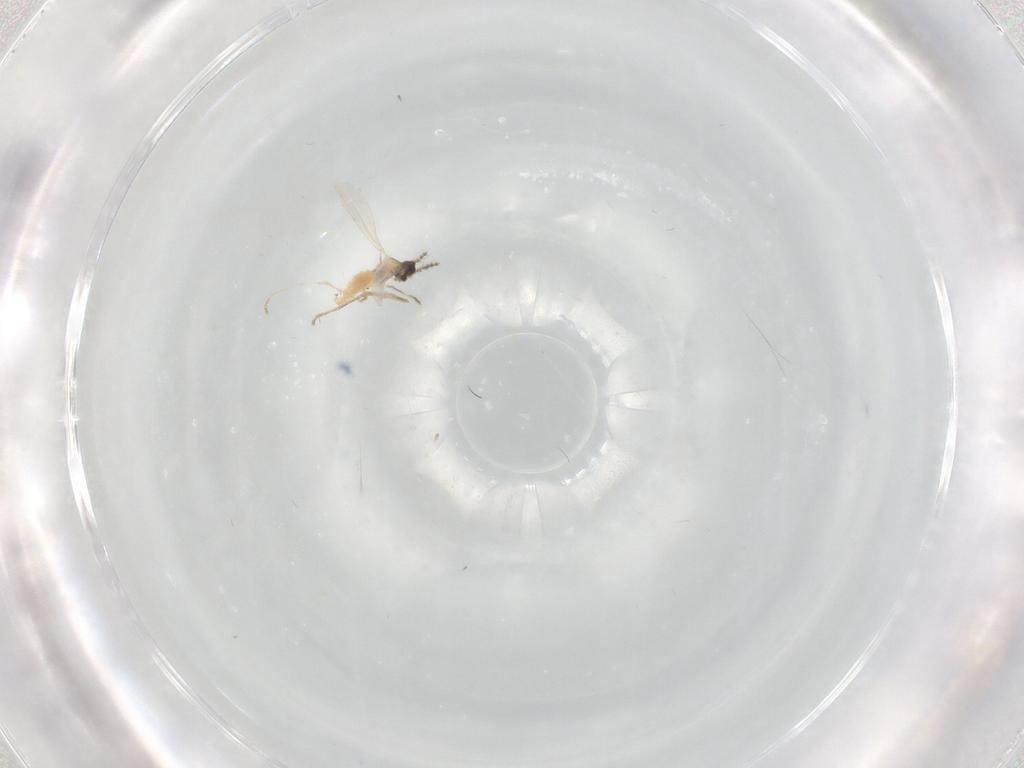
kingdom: Animalia
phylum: Arthropoda
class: Insecta
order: Diptera
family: Cecidomyiidae
